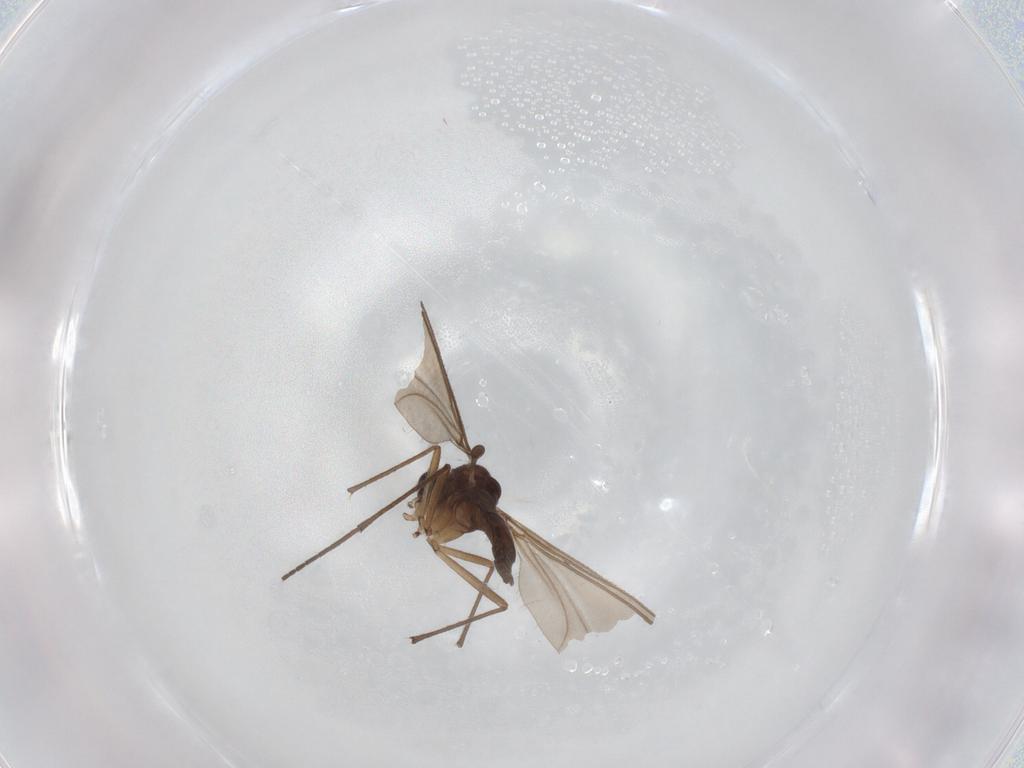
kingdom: Animalia
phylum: Arthropoda
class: Insecta
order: Diptera
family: Sciaridae
